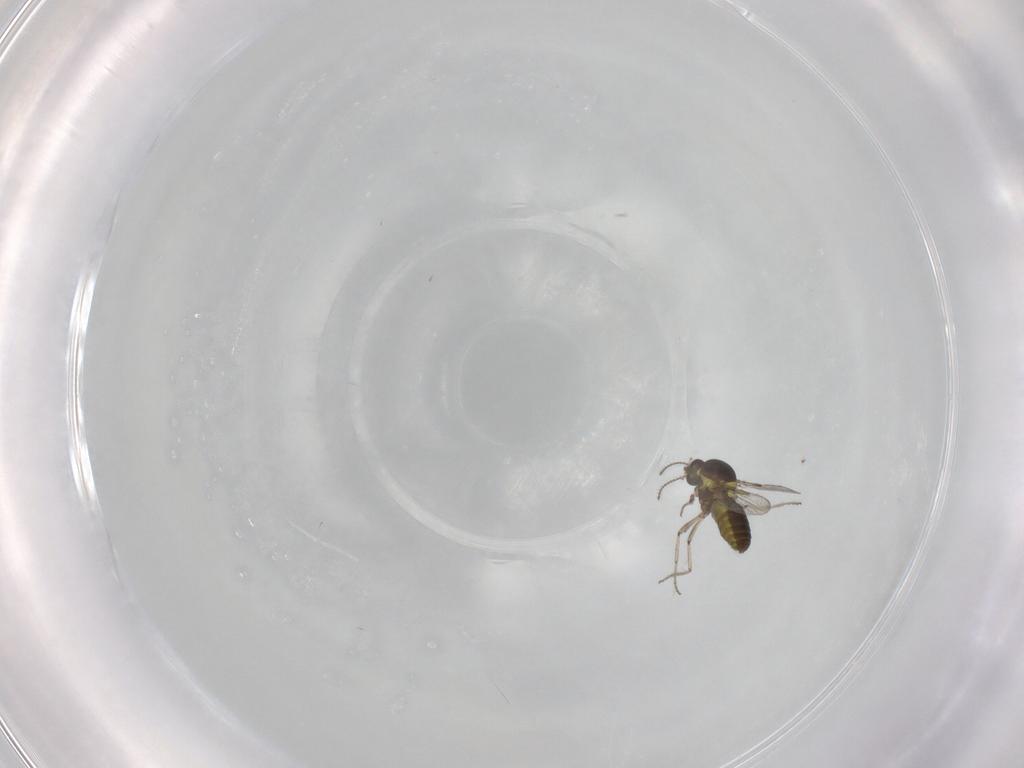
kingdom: Animalia
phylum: Arthropoda
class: Insecta
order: Diptera
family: Ceratopogonidae
